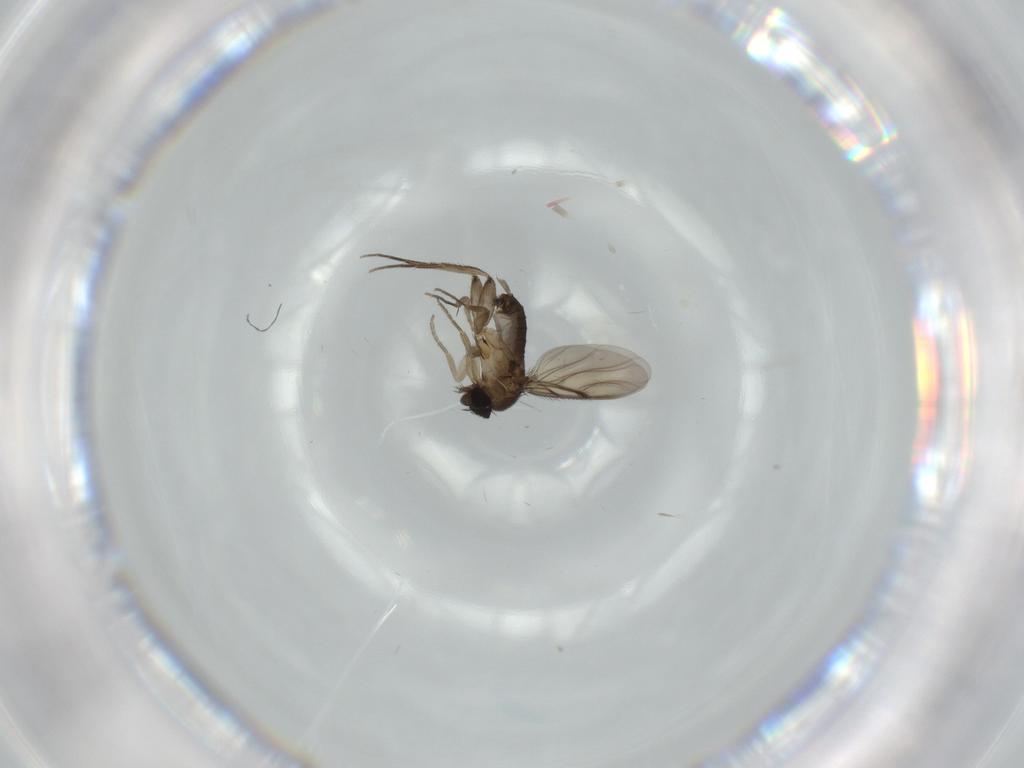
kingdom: Animalia
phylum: Arthropoda
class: Insecta
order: Diptera
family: Phoridae
